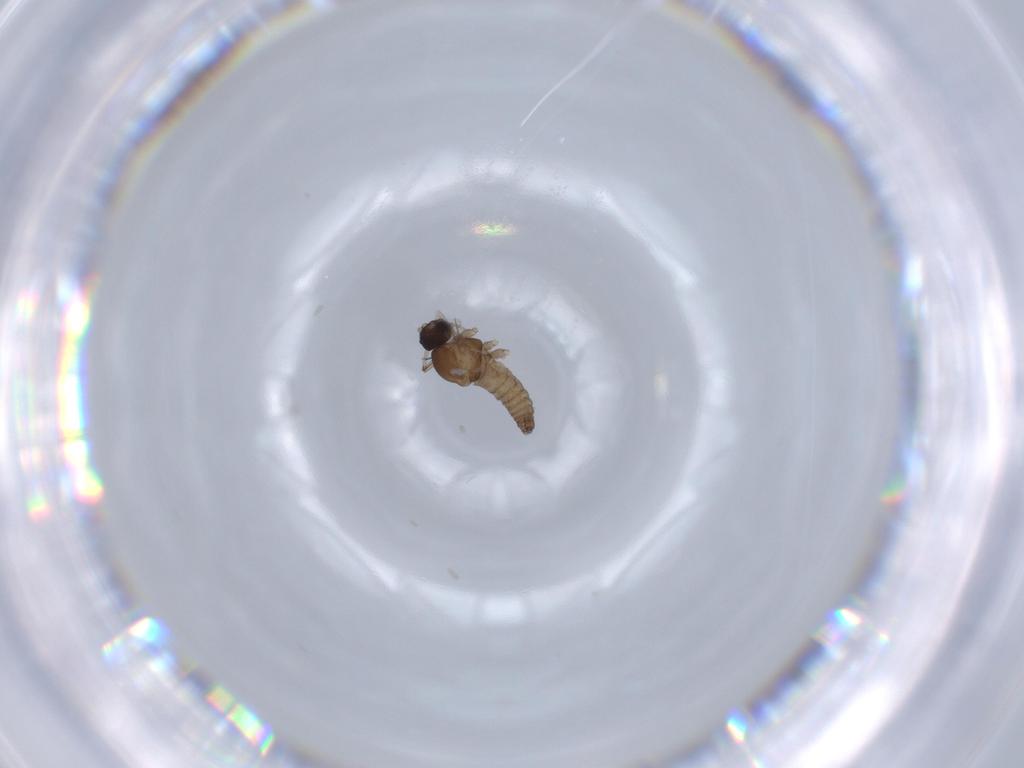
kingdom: Animalia
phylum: Arthropoda
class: Insecta
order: Diptera
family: Cecidomyiidae
